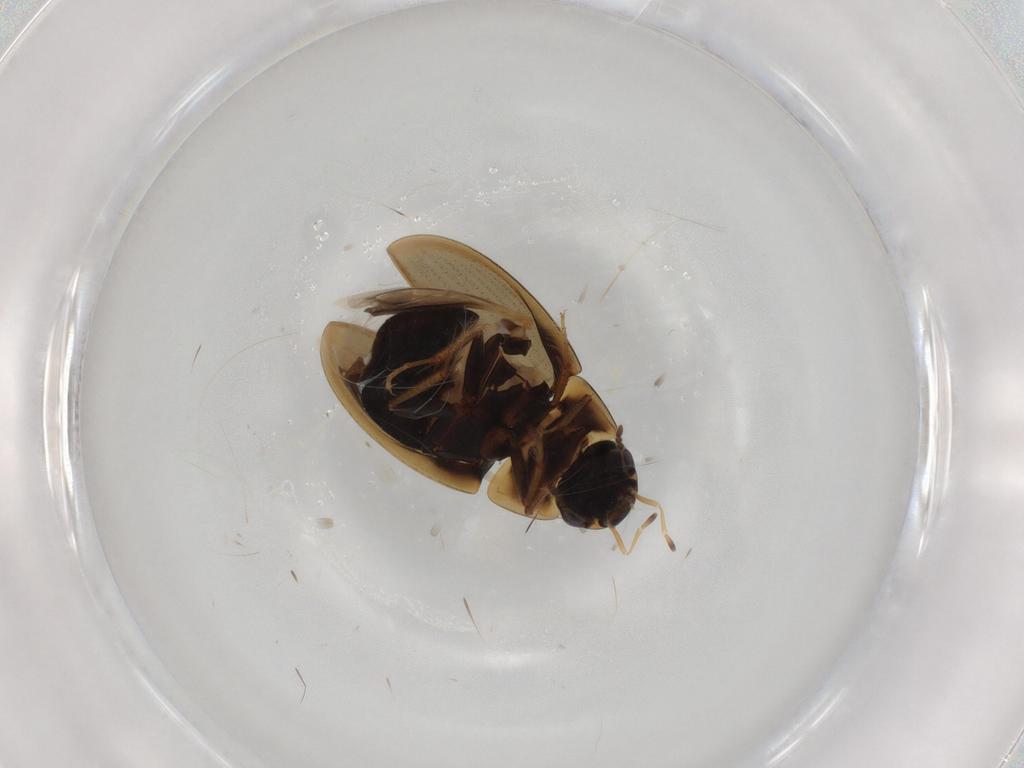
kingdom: Animalia
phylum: Arthropoda
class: Insecta
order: Coleoptera
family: Hydrophilidae
